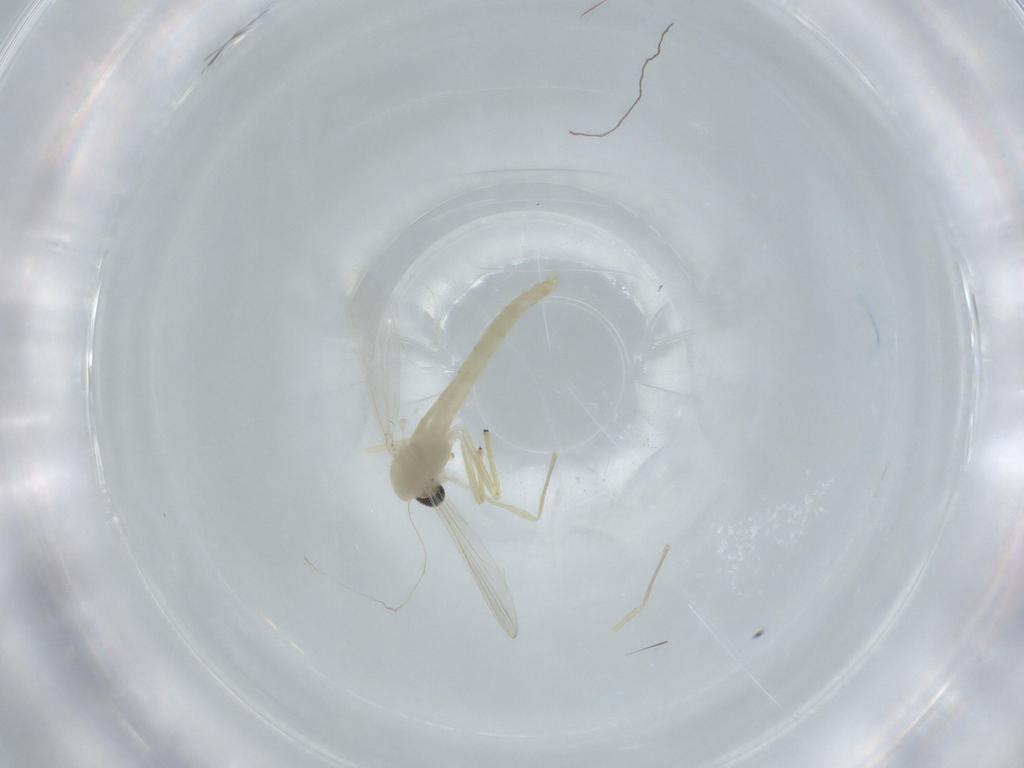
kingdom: Animalia
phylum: Arthropoda
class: Insecta
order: Diptera
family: Chironomidae
